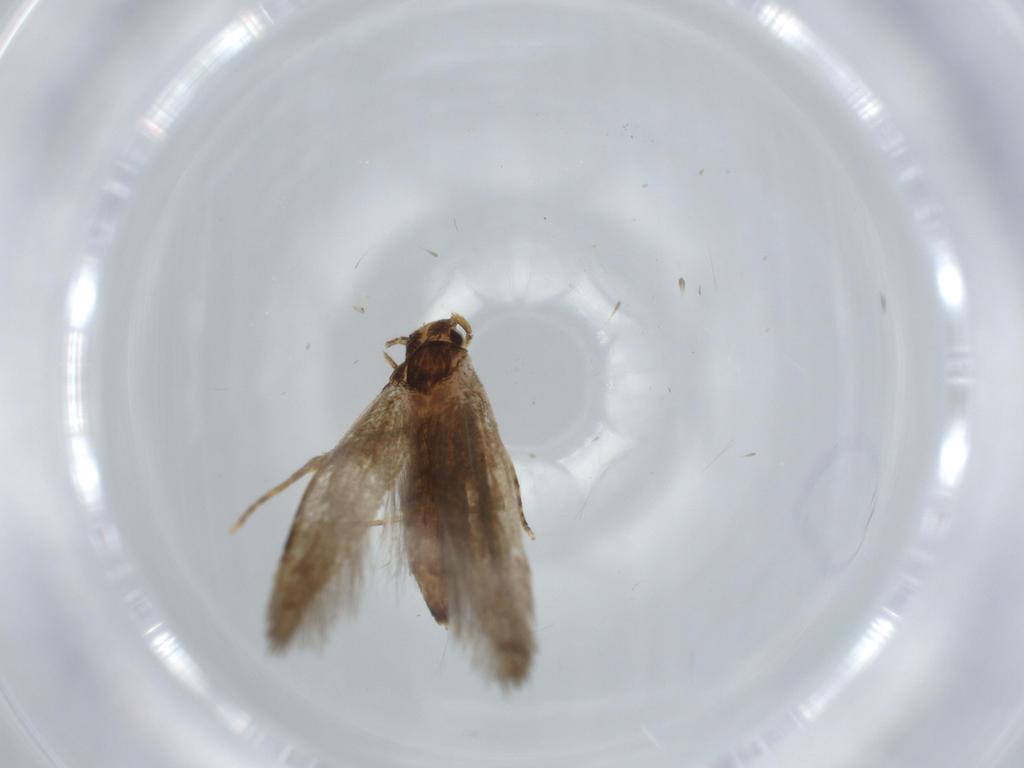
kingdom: Animalia
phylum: Arthropoda
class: Insecta
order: Lepidoptera
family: Tineidae
